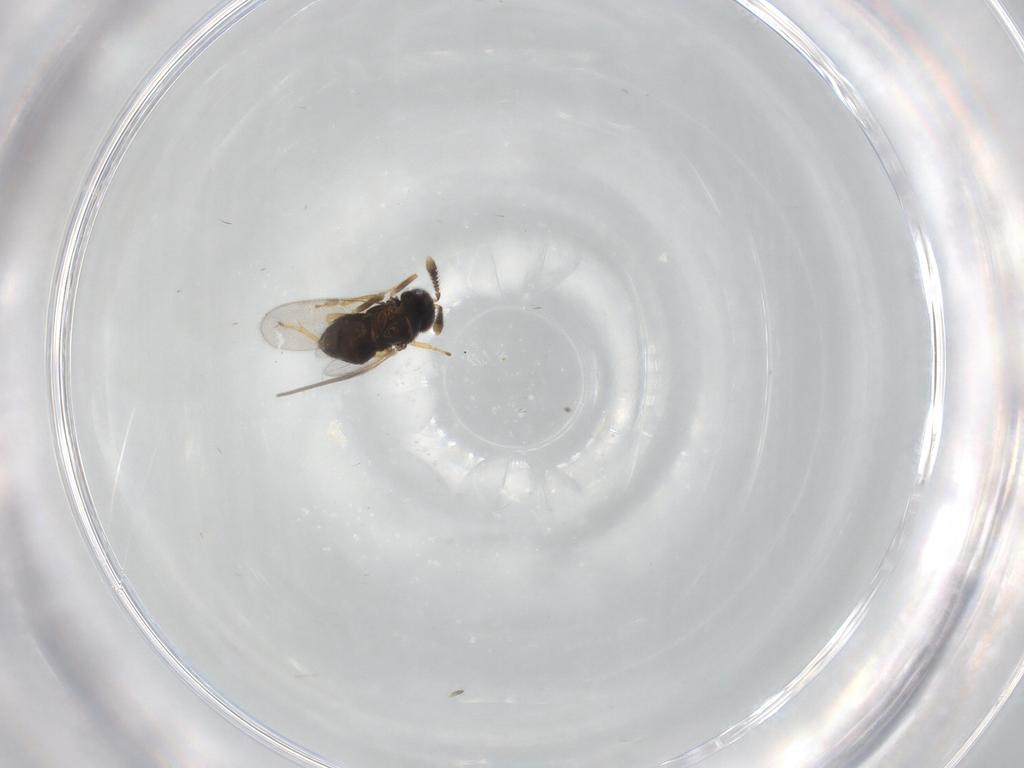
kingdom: Animalia
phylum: Arthropoda
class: Insecta
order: Hymenoptera
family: Encyrtidae
